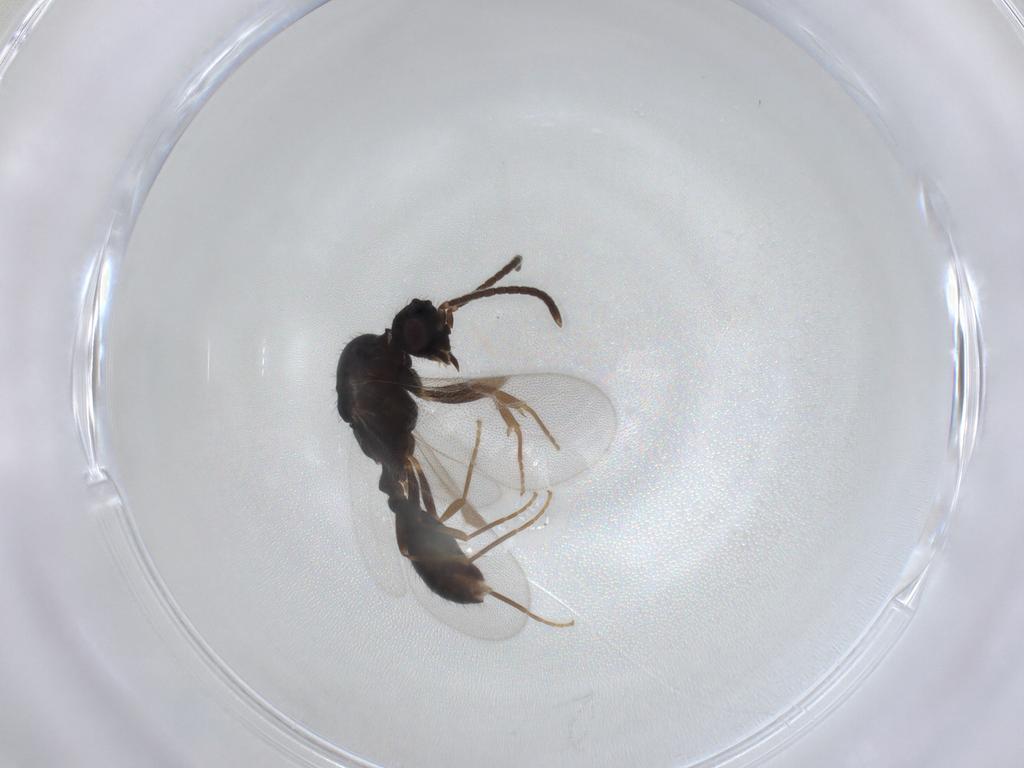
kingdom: Animalia
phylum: Arthropoda
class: Insecta
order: Hymenoptera
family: Formicidae
